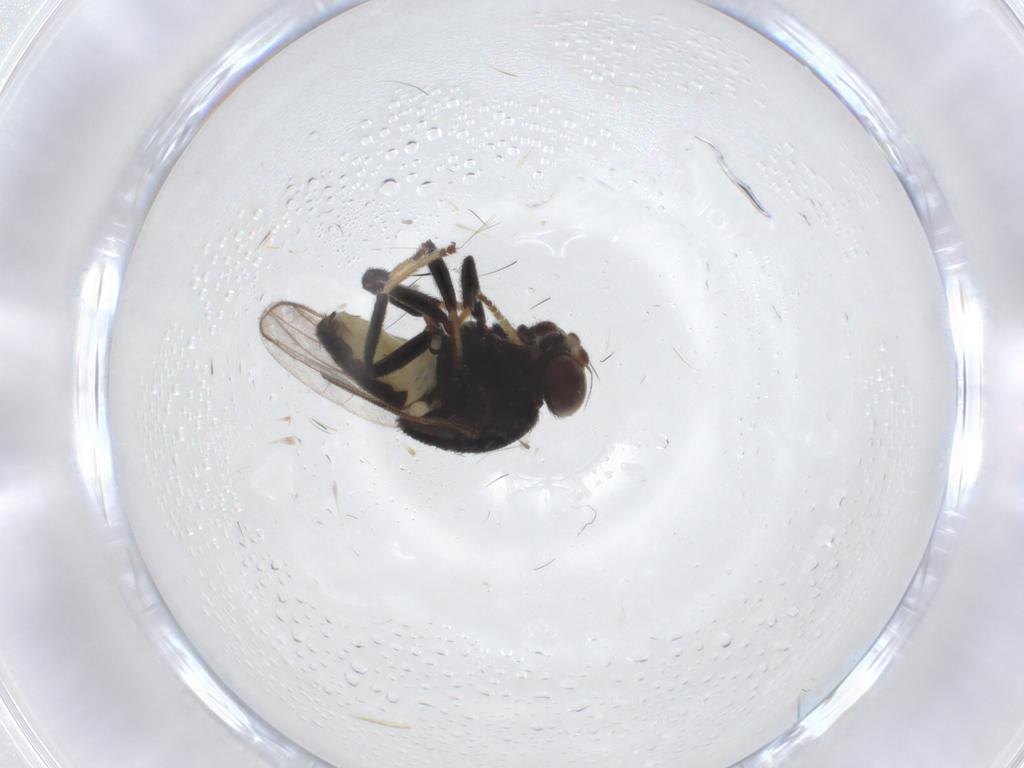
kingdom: Animalia
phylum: Arthropoda
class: Insecta
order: Diptera
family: Chloropidae
